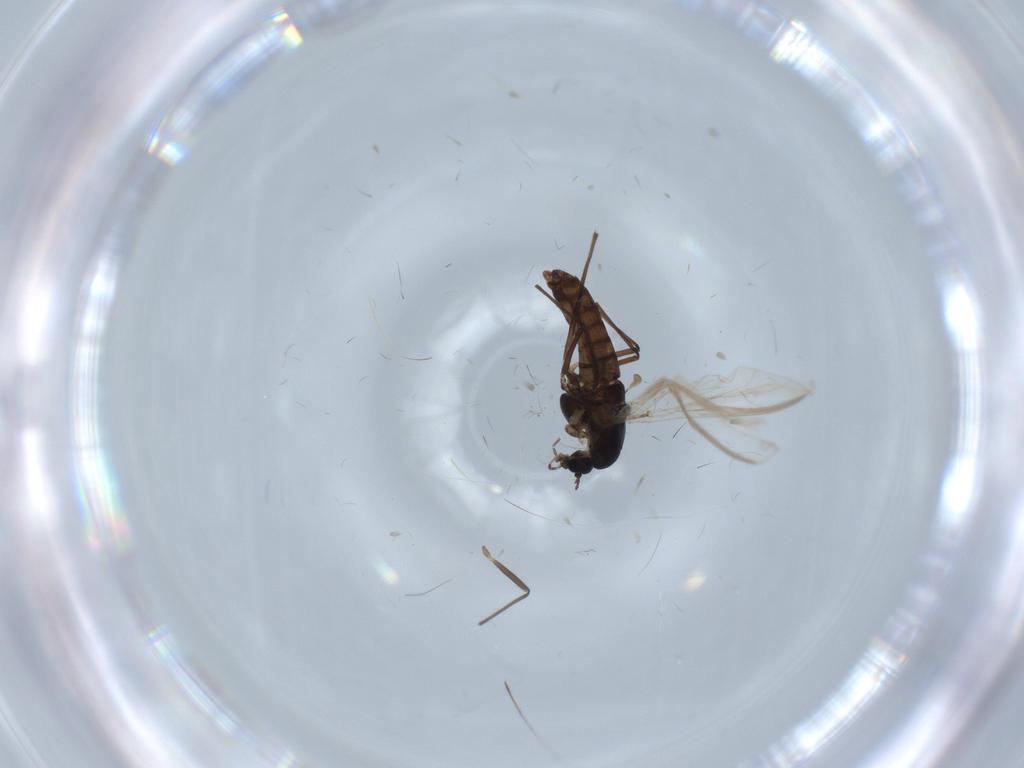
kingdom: Animalia
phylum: Arthropoda
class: Insecta
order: Diptera
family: Chironomidae
